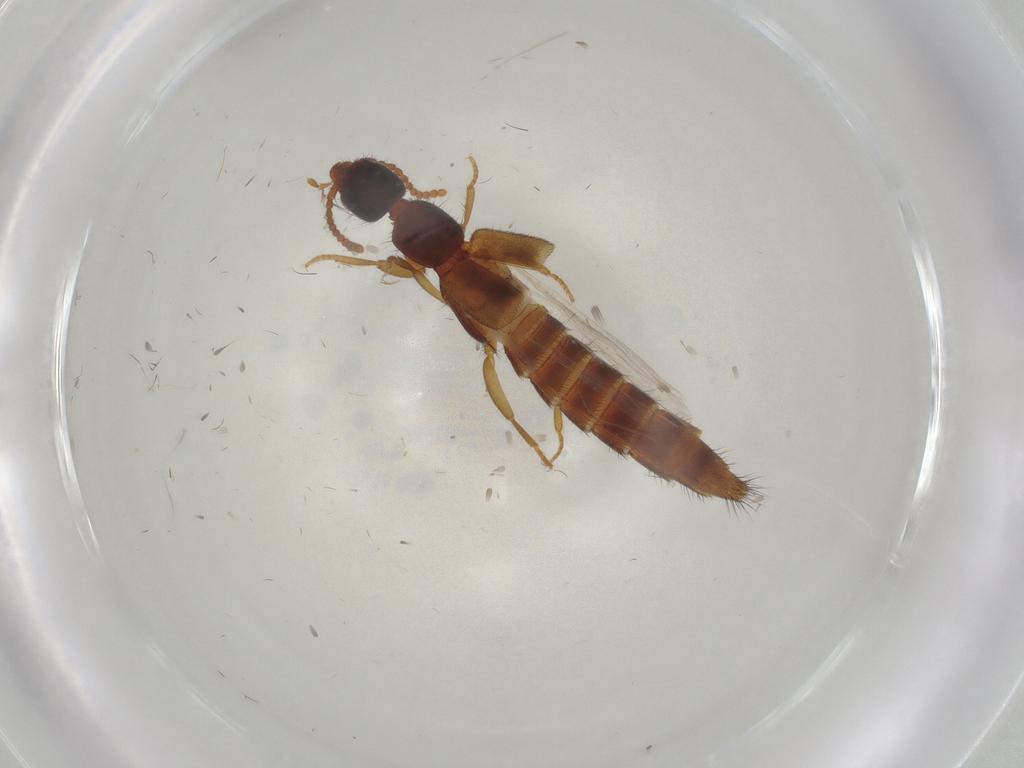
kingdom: Animalia
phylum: Arthropoda
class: Insecta
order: Coleoptera
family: Staphylinidae
